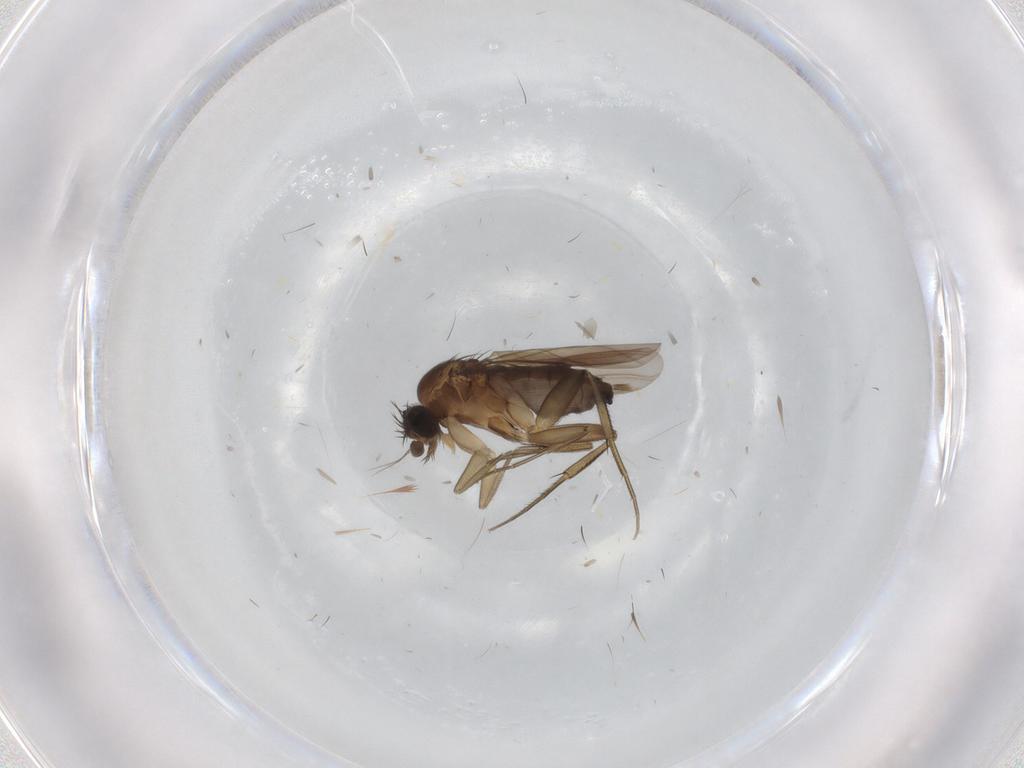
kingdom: Animalia
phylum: Arthropoda
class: Insecta
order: Diptera
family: Phoridae
